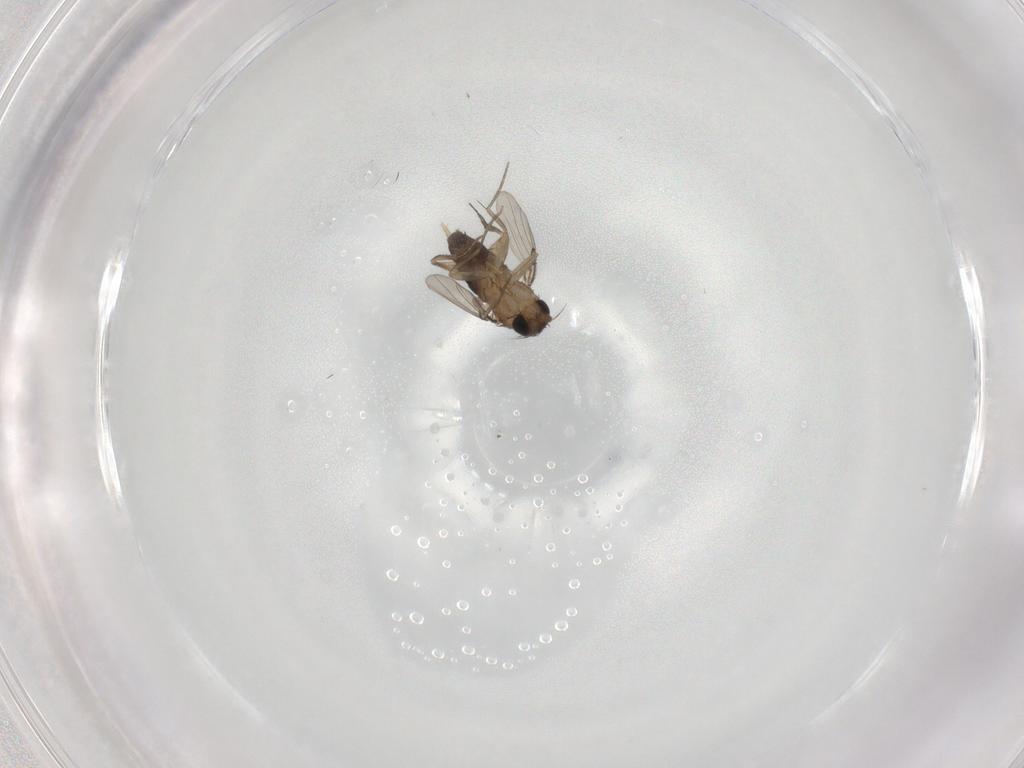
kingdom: Animalia
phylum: Arthropoda
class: Insecta
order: Diptera
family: Phoridae
